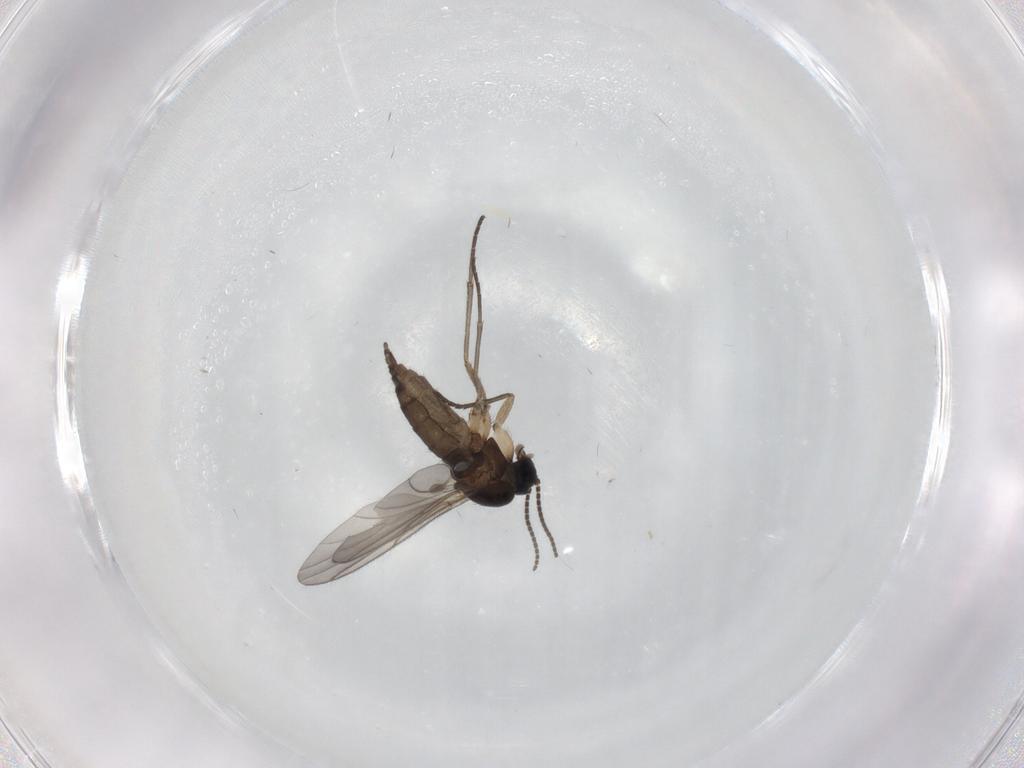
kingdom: Animalia
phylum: Arthropoda
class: Insecta
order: Diptera
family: Sciaridae
